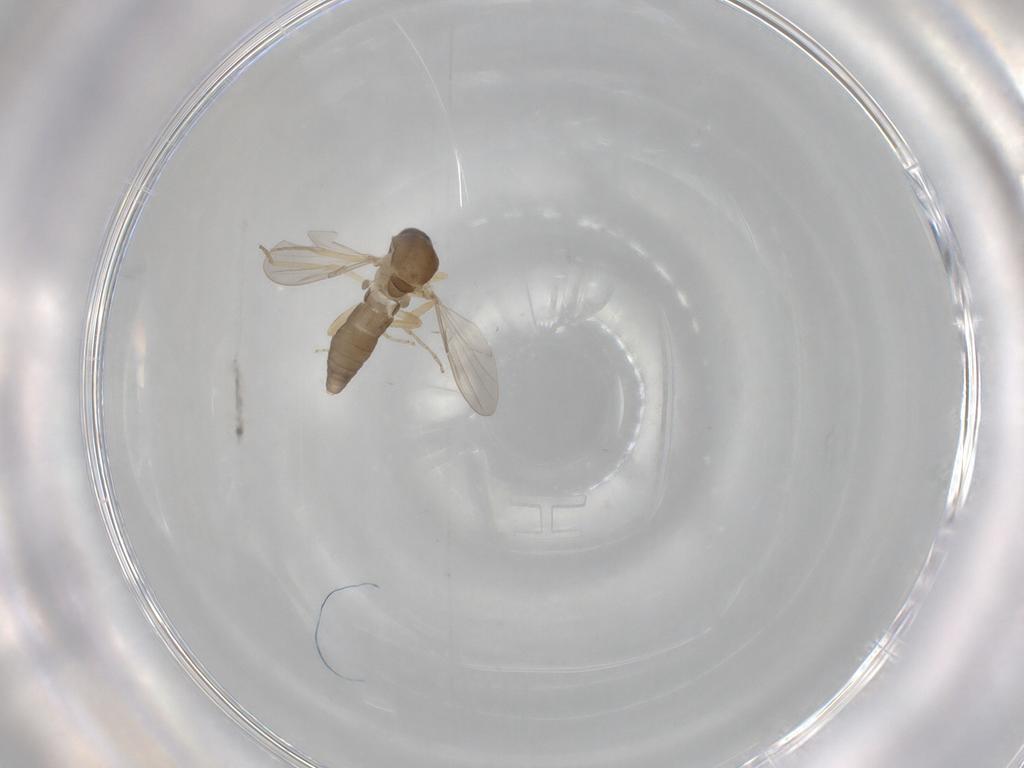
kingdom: Animalia
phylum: Arthropoda
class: Insecta
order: Diptera
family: Ceratopogonidae
